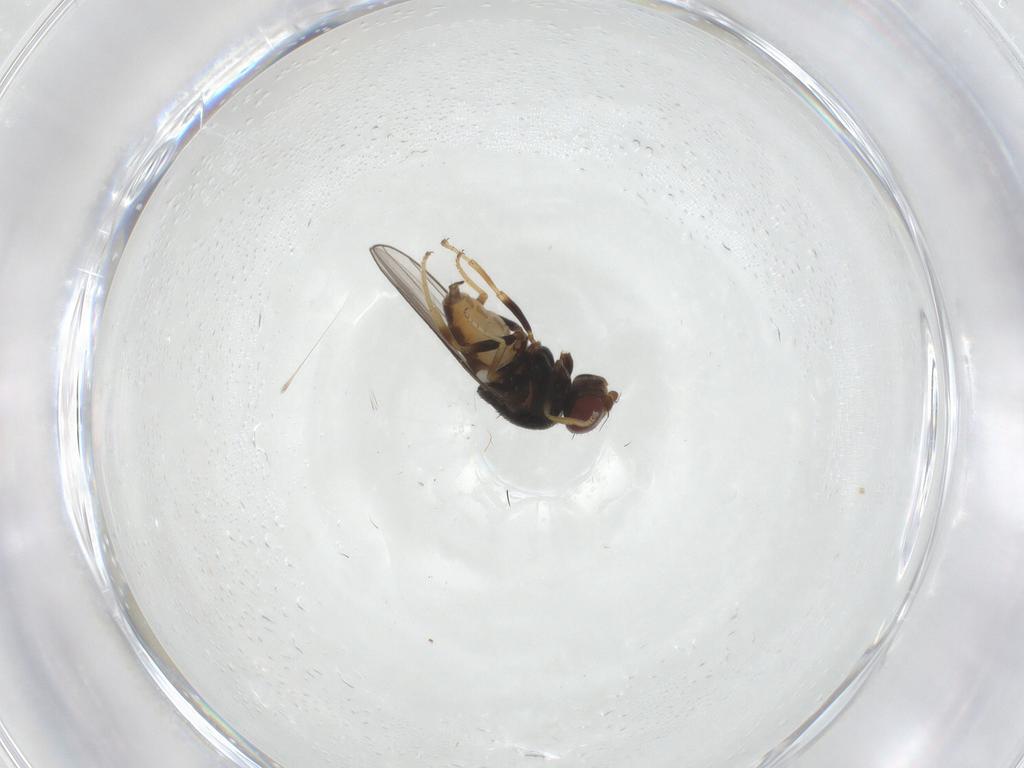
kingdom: Animalia
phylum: Arthropoda
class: Insecta
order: Diptera
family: Chloropidae
